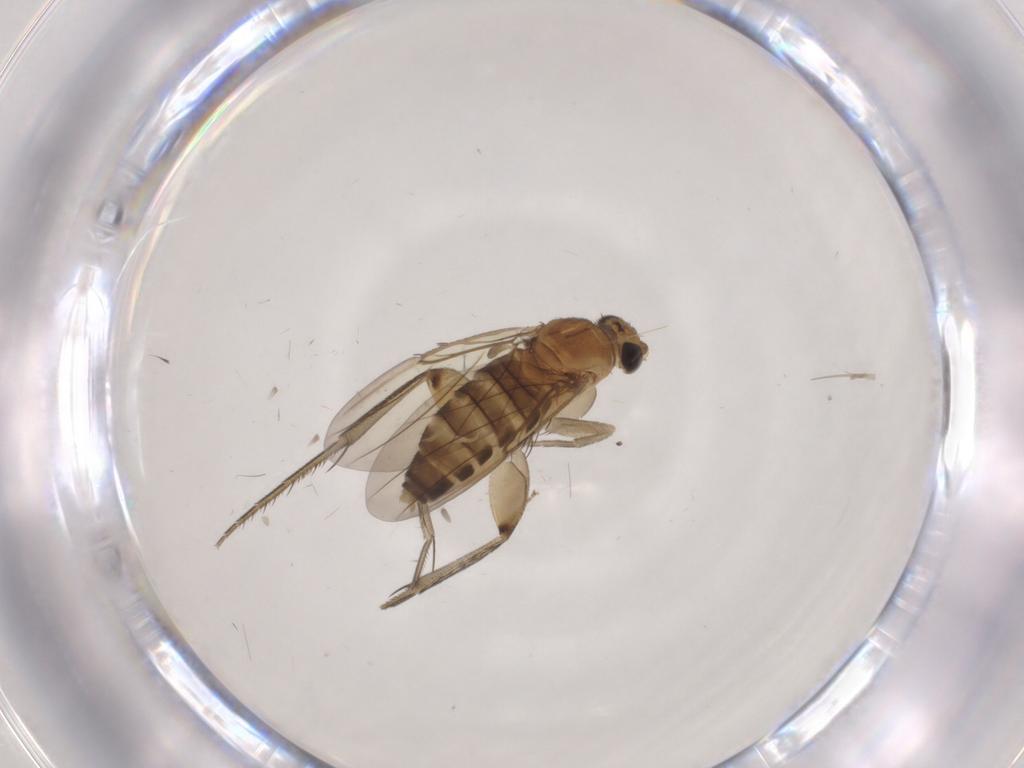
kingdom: Animalia
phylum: Arthropoda
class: Insecta
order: Diptera
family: Phoridae
